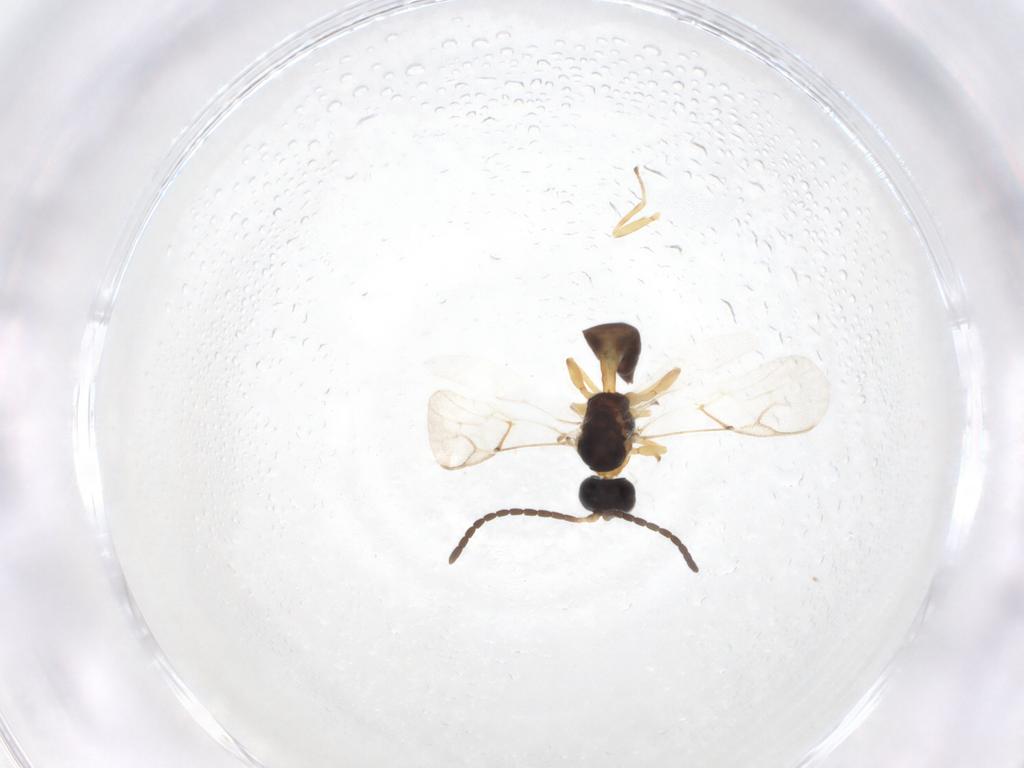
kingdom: Animalia
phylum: Arthropoda
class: Insecta
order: Hymenoptera
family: Braconidae
